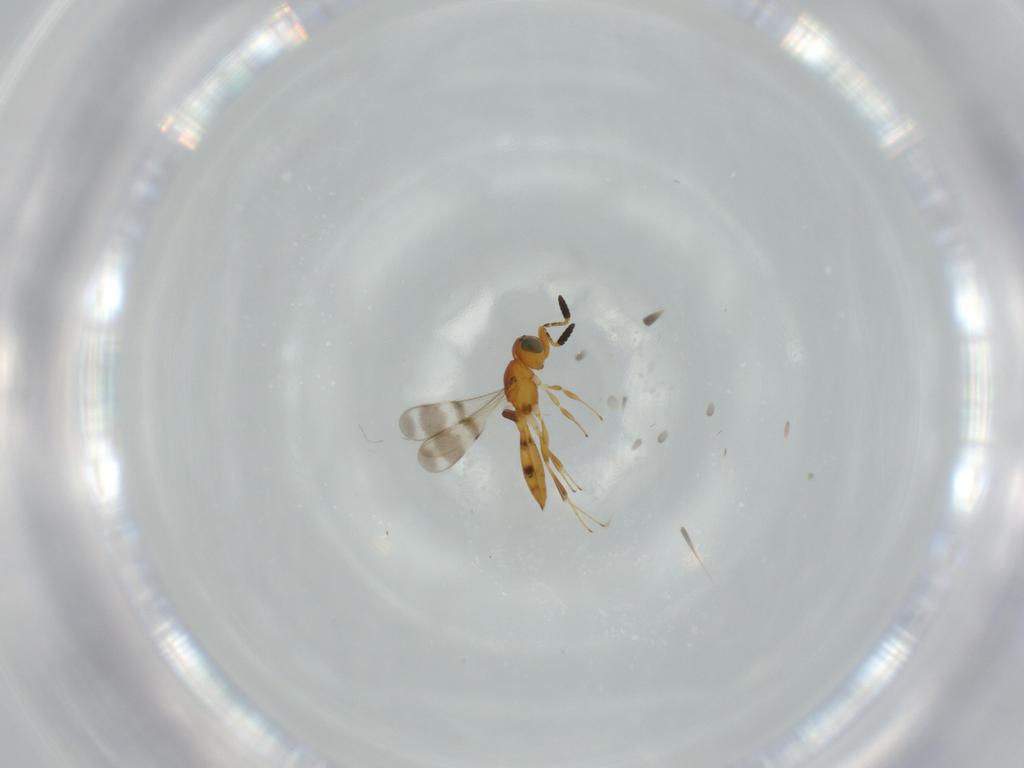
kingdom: Animalia
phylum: Arthropoda
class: Insecta
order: Hymenoptera
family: Scelionidae
